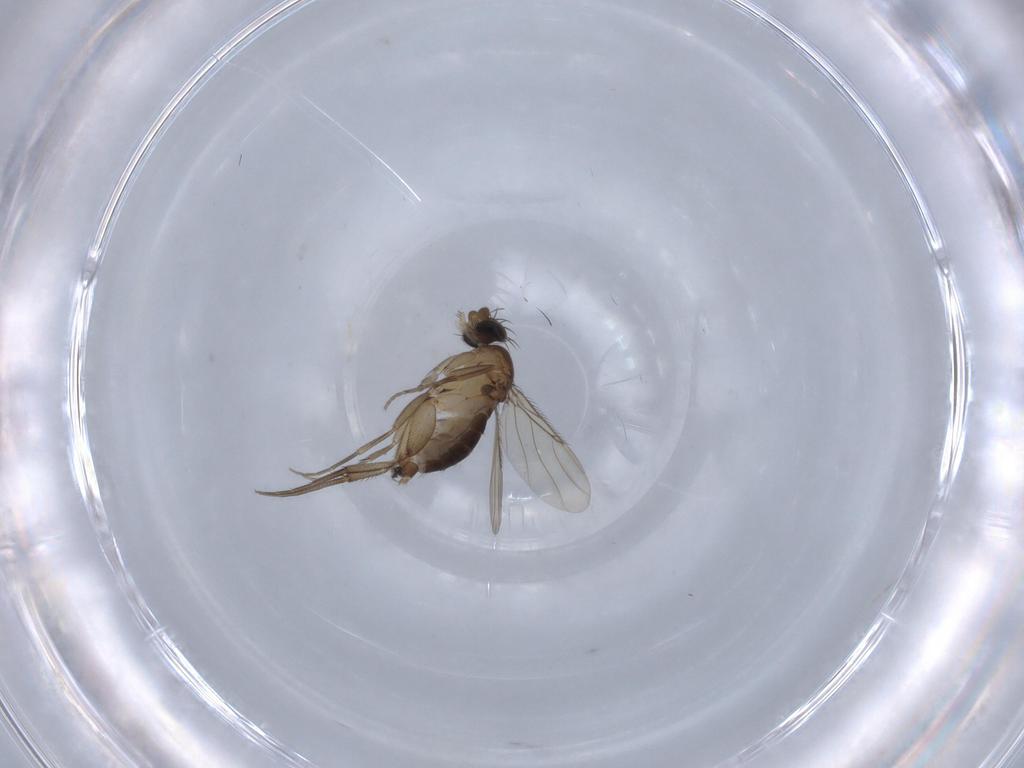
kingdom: Animalia
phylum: Arthropoda
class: Insecta
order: Diptera
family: Phoridae
